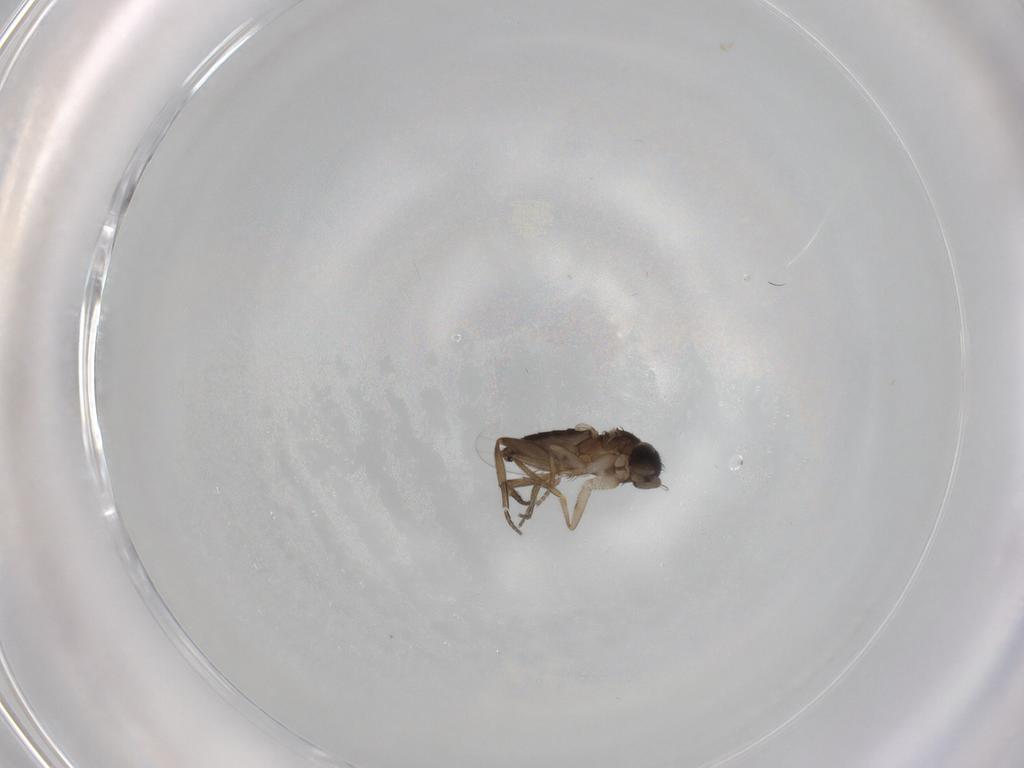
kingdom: Animalia
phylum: Arthropoda
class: Insecta
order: Diptera
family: Phoridae
